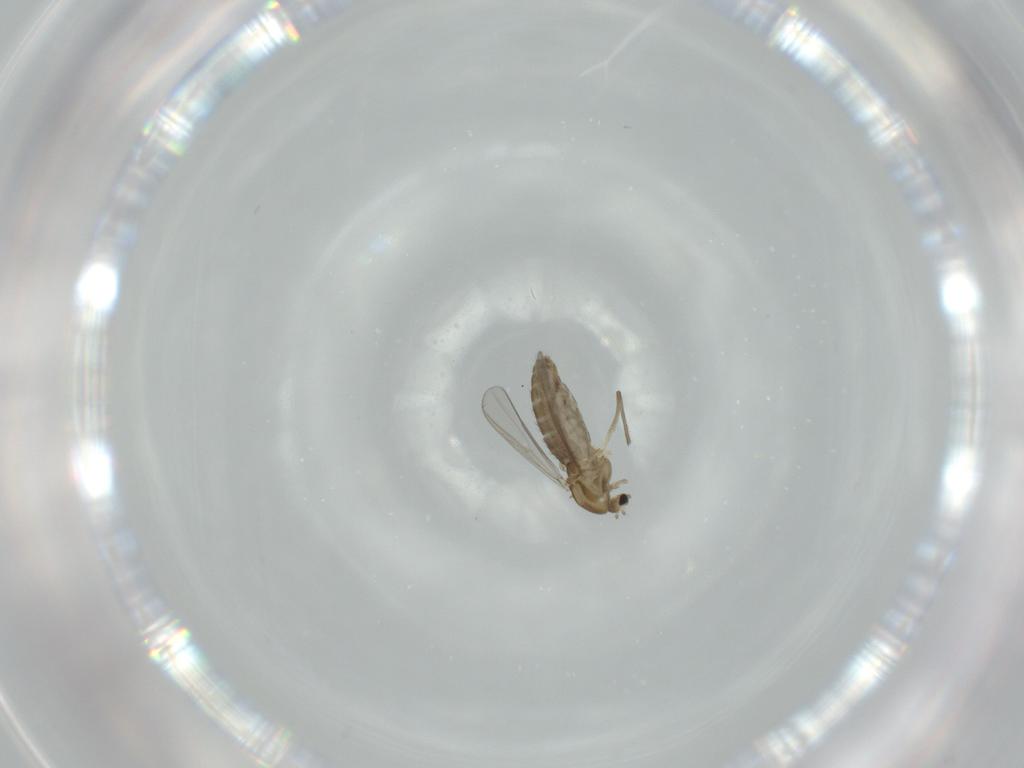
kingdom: Animalia
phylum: Arthropoda
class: Insecta
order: Diptera
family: Chironomidae
